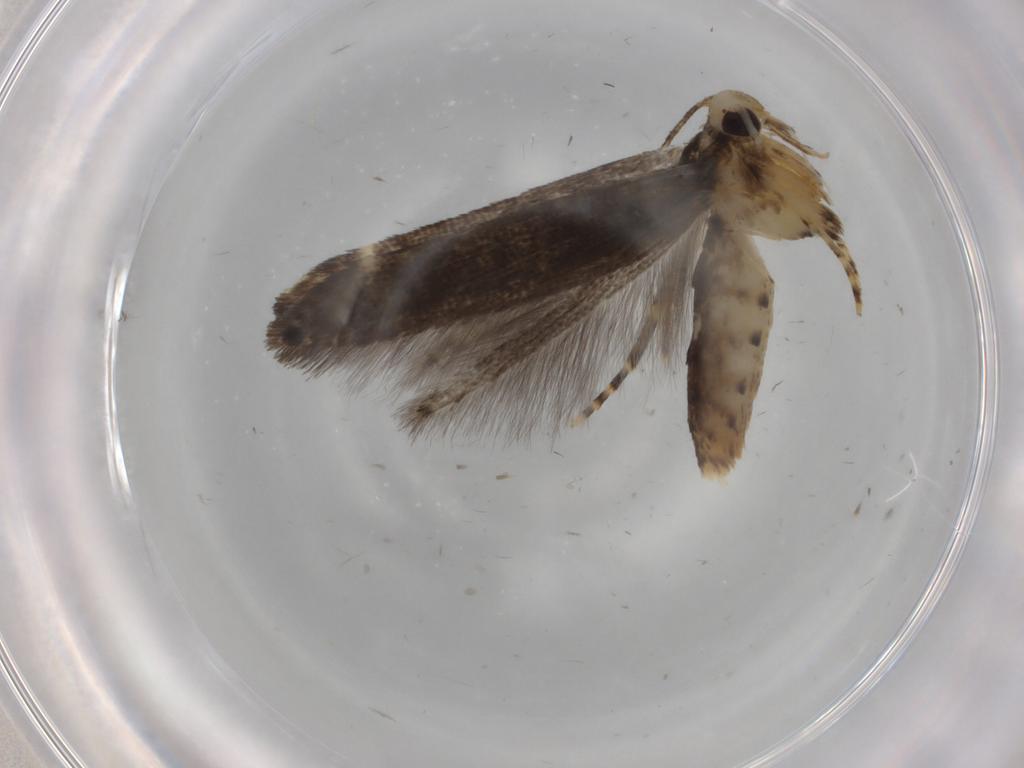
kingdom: Animalia
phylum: Arthropoda
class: Insecta
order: Lepidoptera
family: Cosmopterigidae
